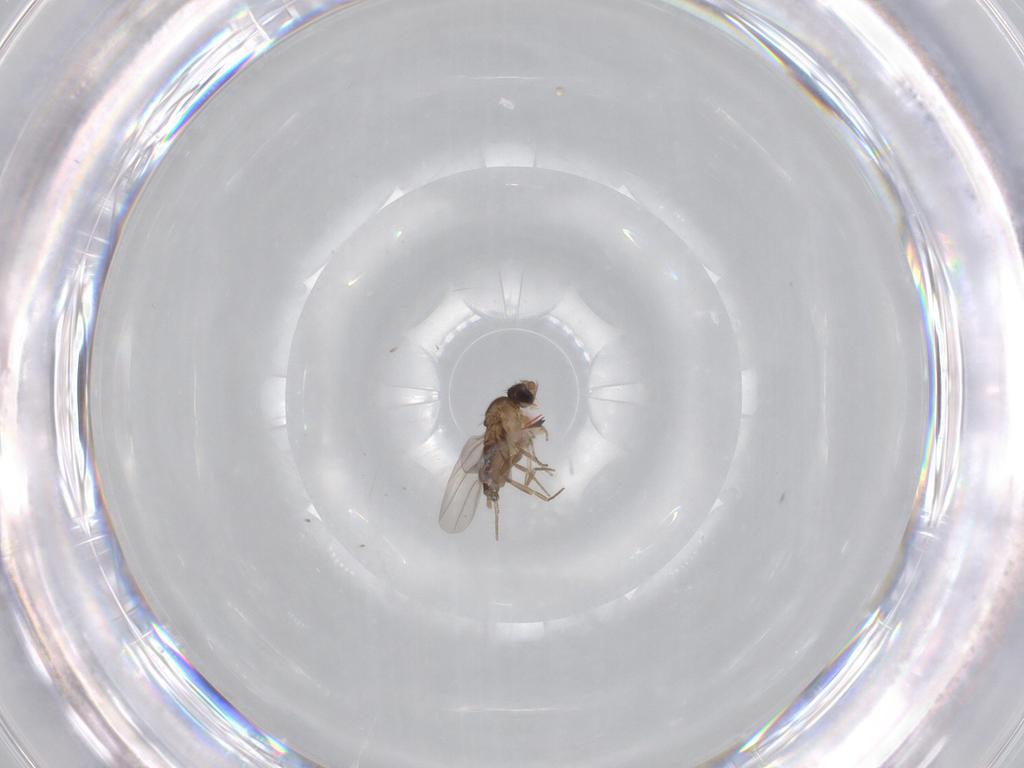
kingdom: Animalia
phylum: Arthropoda
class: Insecta
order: Diptera
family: Phoridae
